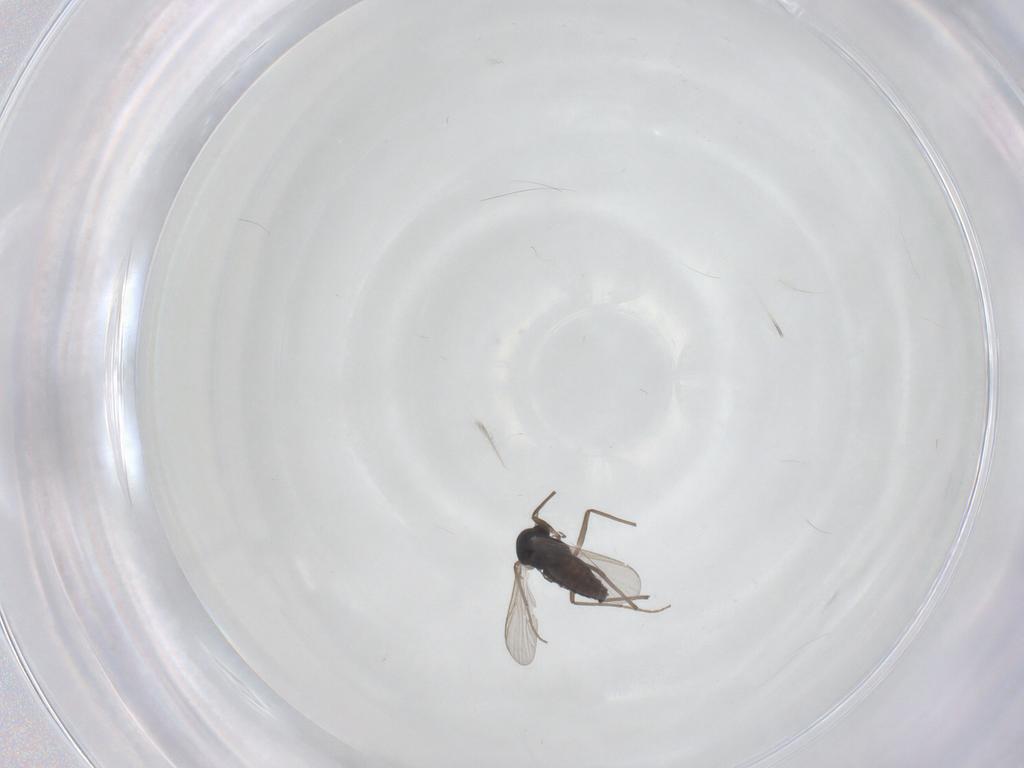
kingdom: Animalia
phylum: Arthropoda
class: Insecta
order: Diptera
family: Chironomidae
